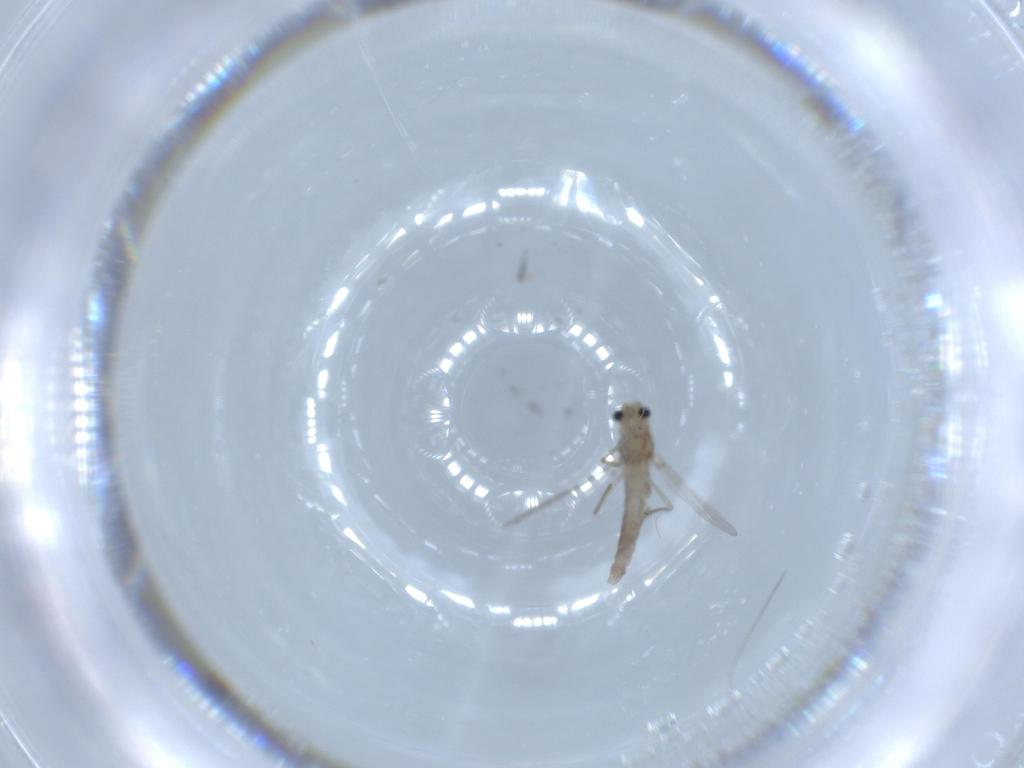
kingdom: Animalia
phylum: Arthropoda
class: Insecta
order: Diptera
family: Chironomidae
